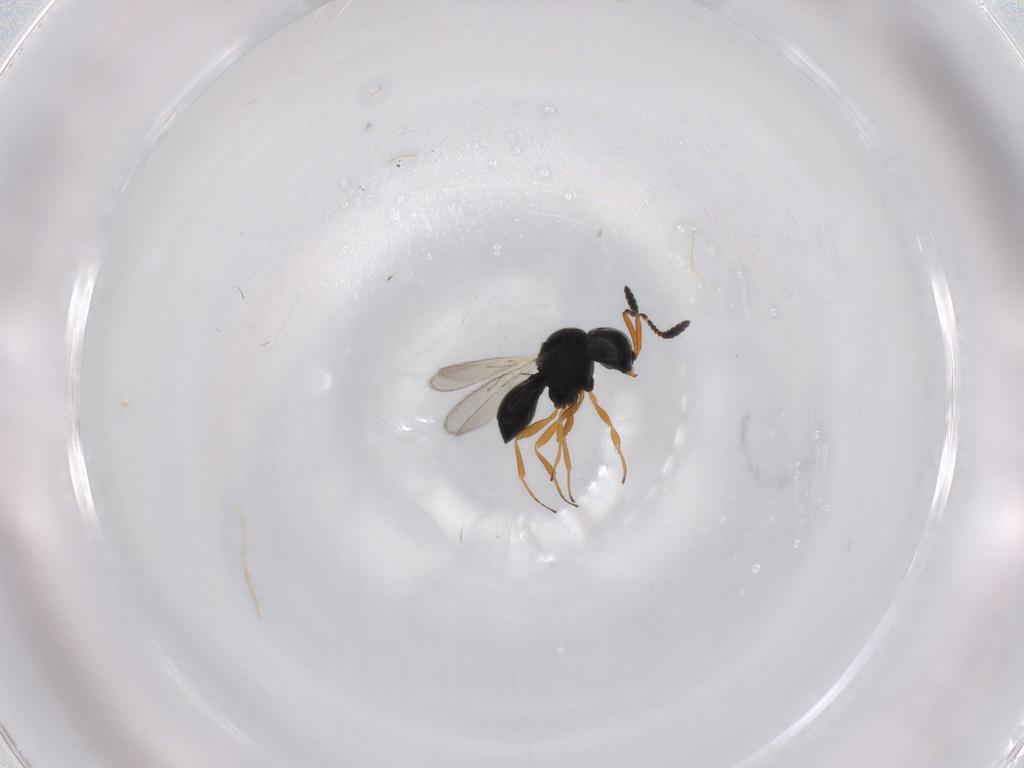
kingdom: Animalia
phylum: Arthropoda
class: Insecta
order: Hymenoptera
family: Scelionidae
